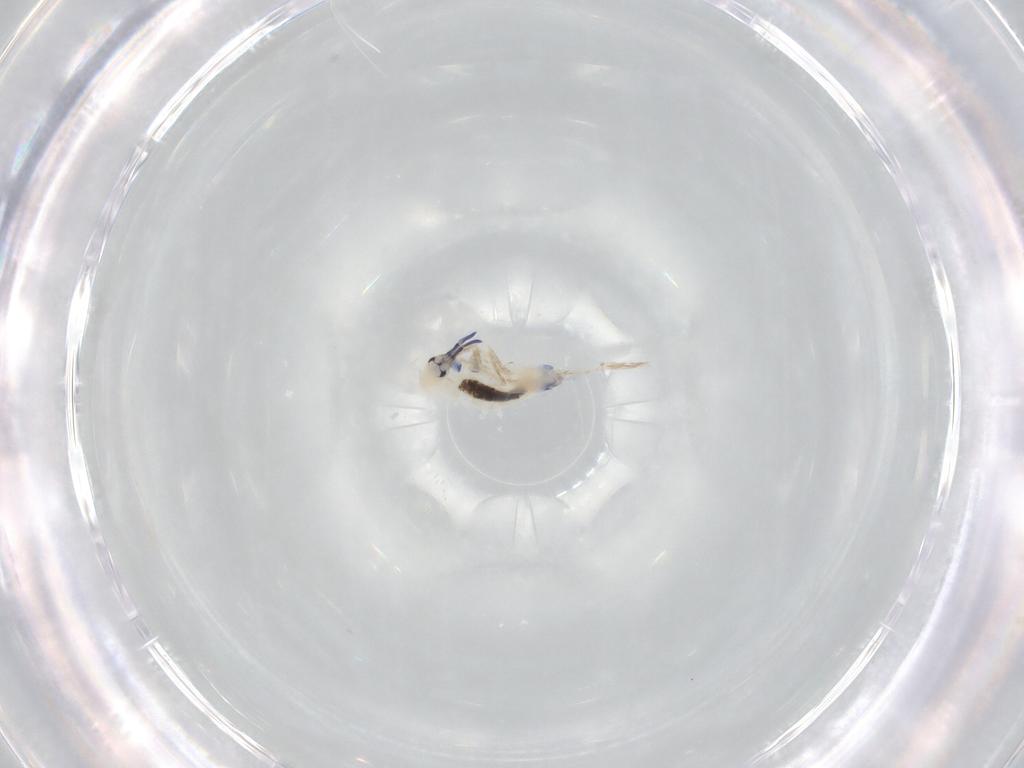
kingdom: Animalia
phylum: Arthropoda
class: Collembola
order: Entomobryomorpha
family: Entomobryidae
